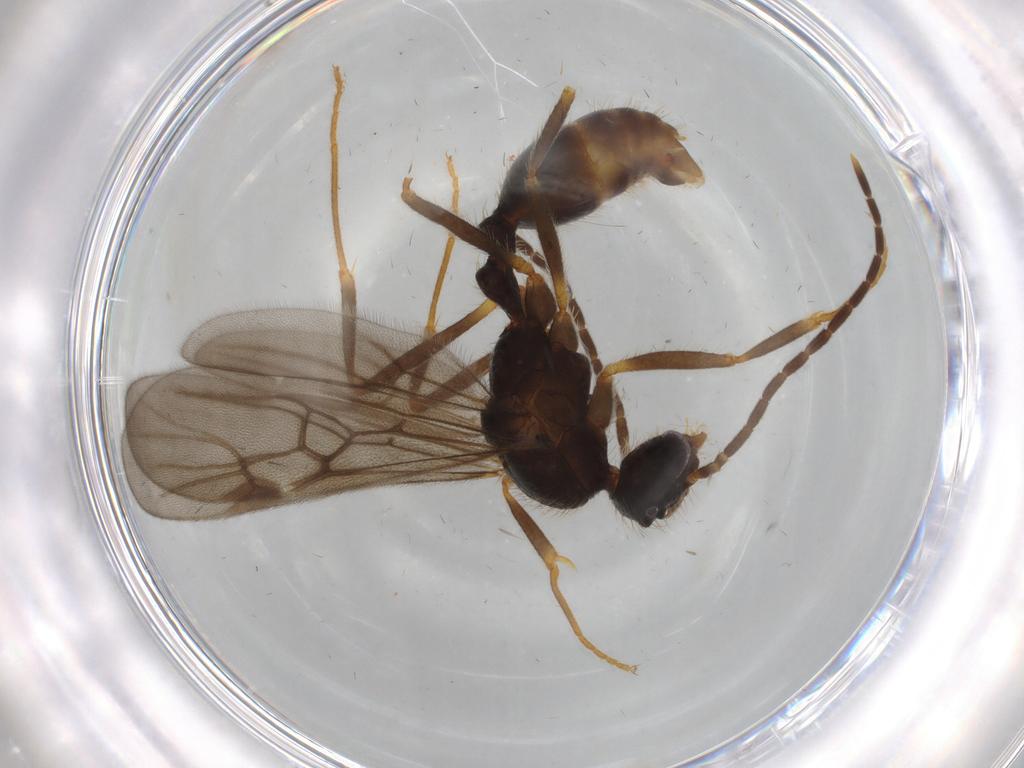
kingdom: Animalia
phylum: Arthropoda
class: Insecta
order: Hymenoptera
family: Formicidae
